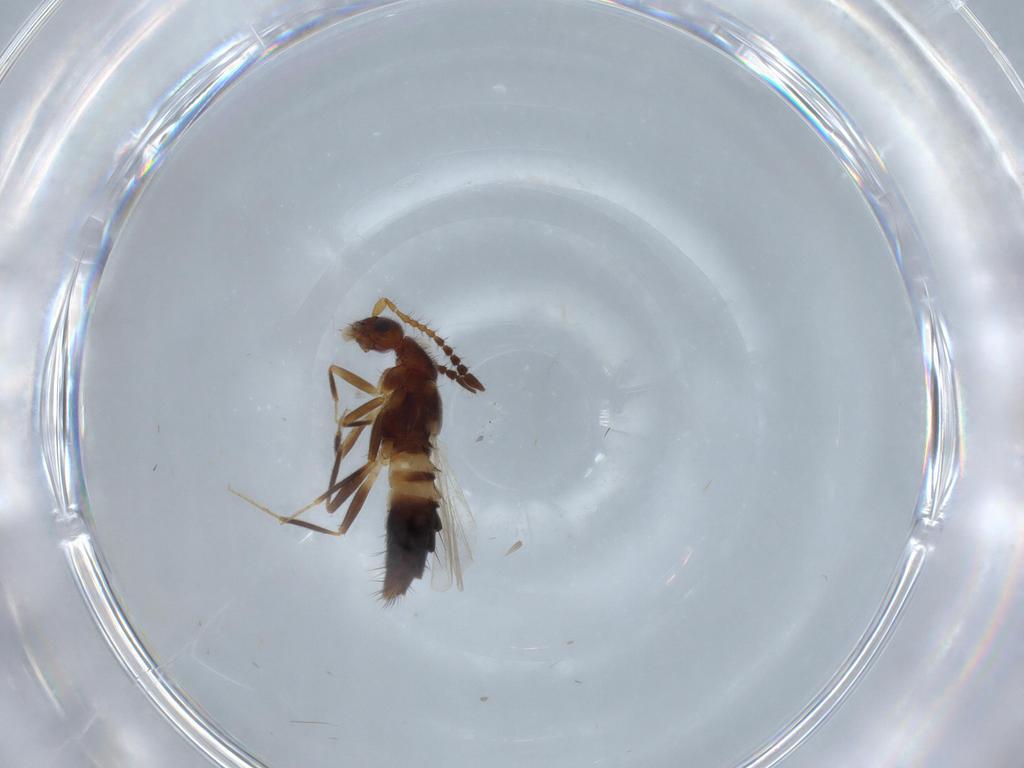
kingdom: Animalia
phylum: Arthropoda
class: Insecta
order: Coleoptera
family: Staphylinidae
